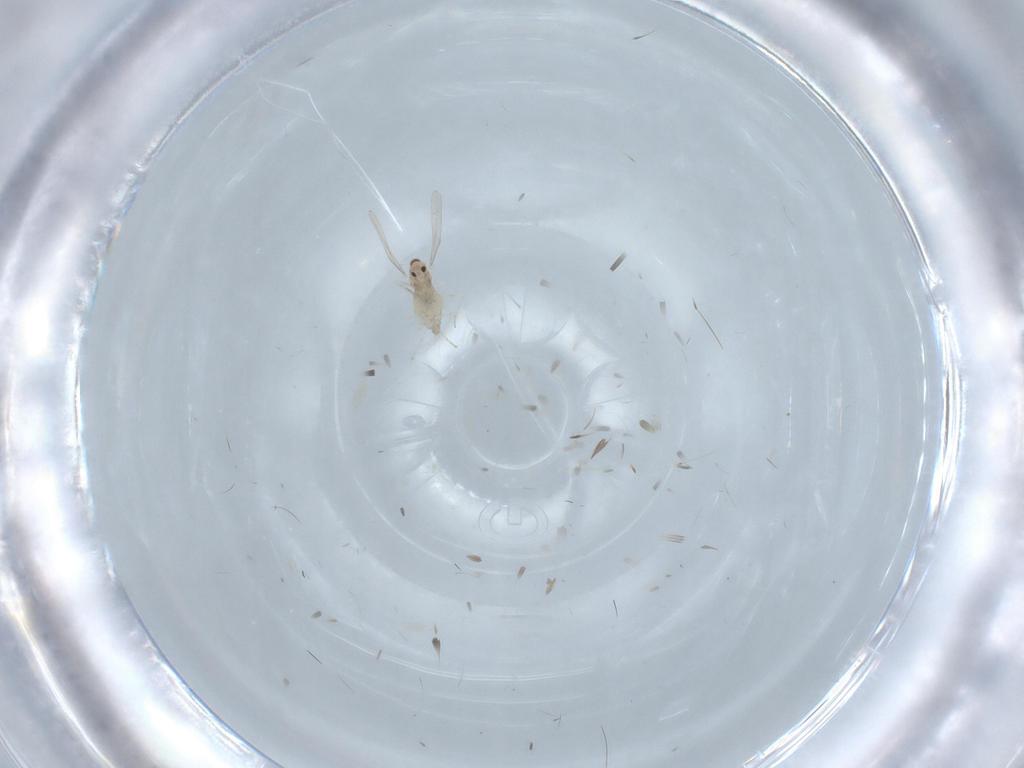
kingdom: Animalia
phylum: Arthropoda
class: Insecta
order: Diptera
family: Cecidomyiidae
